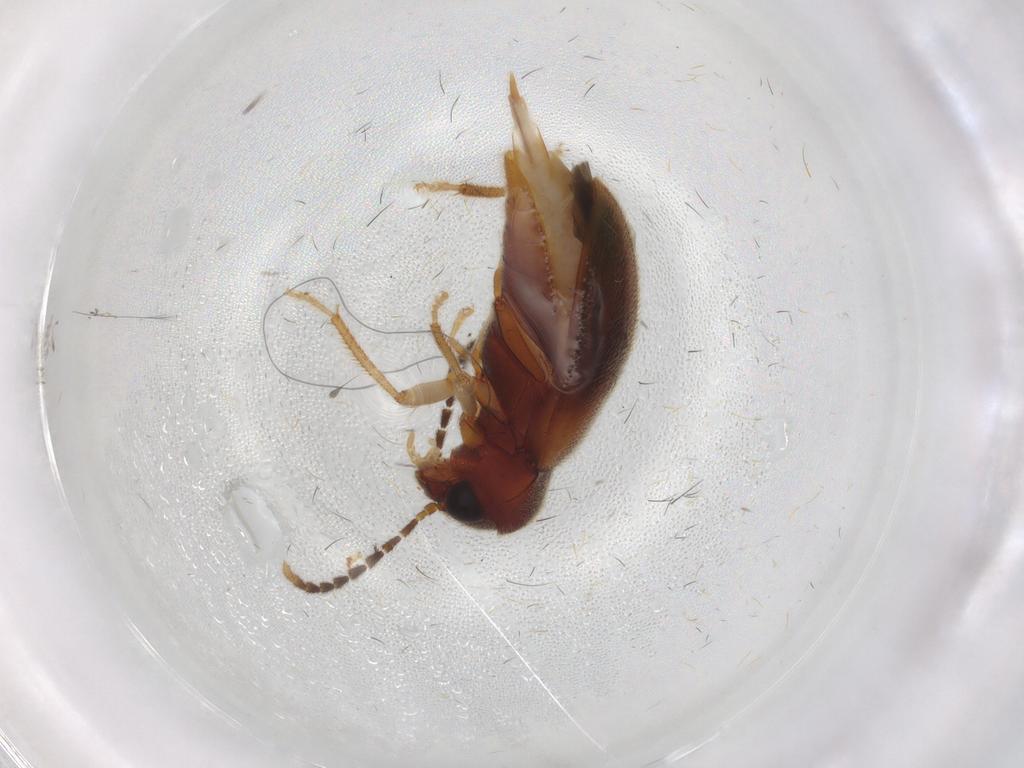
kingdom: Animalia
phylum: Arthropoda
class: Insecta
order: Coleoptera
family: Ptilodactylidae
